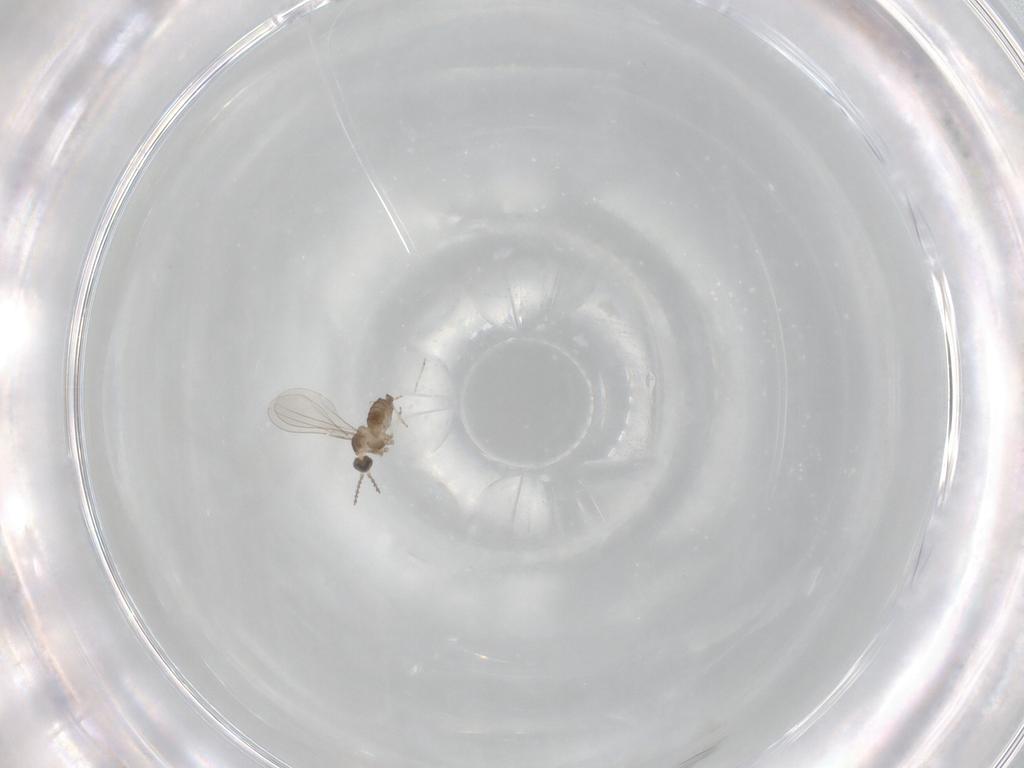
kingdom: Animalia
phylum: Arthropoda
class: Insecta
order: Diptera
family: Cecidomyiidae
